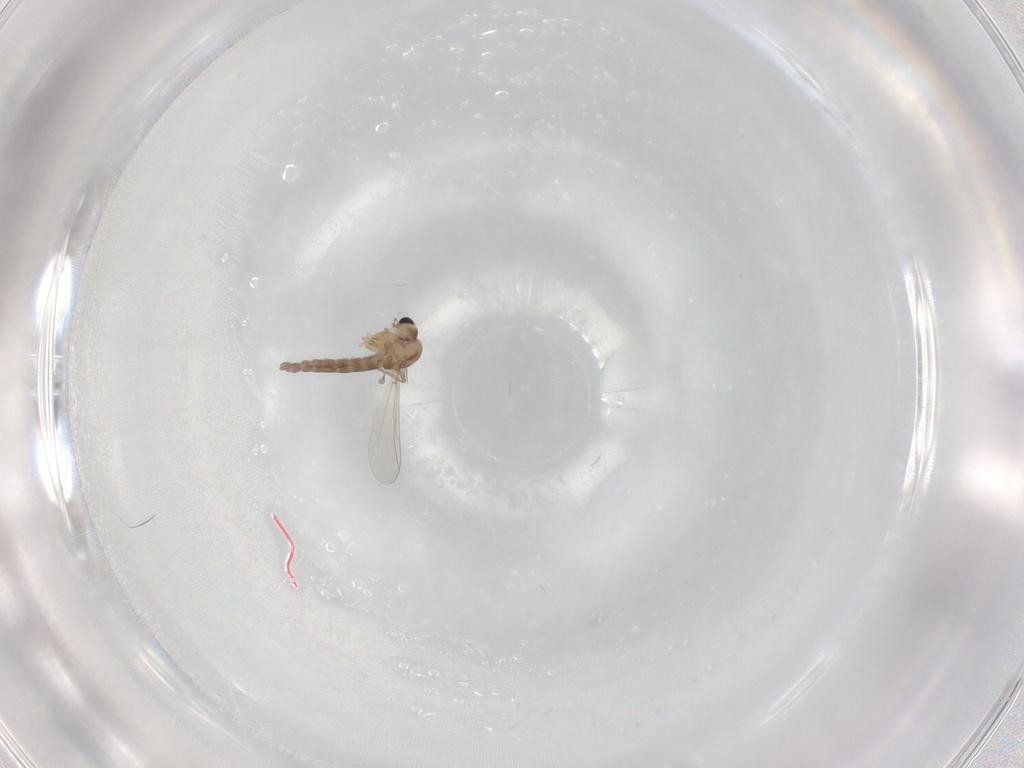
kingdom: Animalia
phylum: Arthropoda
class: Insecta
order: Diptera
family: Chironomidae
